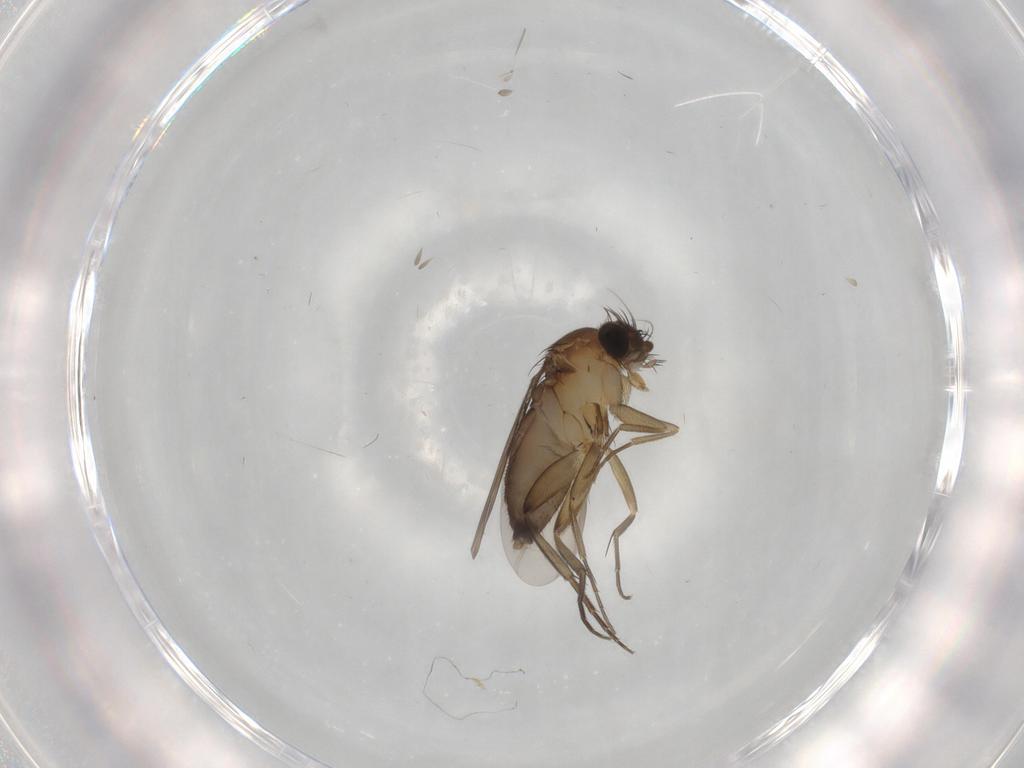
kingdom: Animalia
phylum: Arthropoda
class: Insecta
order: Diptera
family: Phoridae
